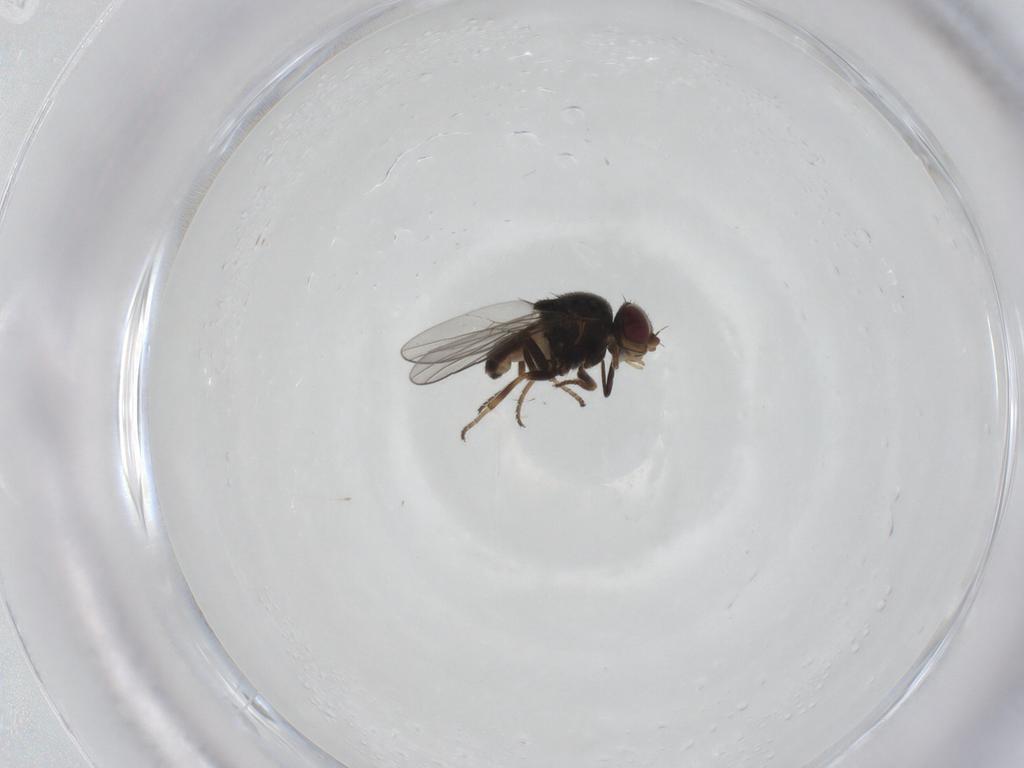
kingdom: Animalia
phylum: Arthropoda
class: Insecta
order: Diptera
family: Chloropidae
